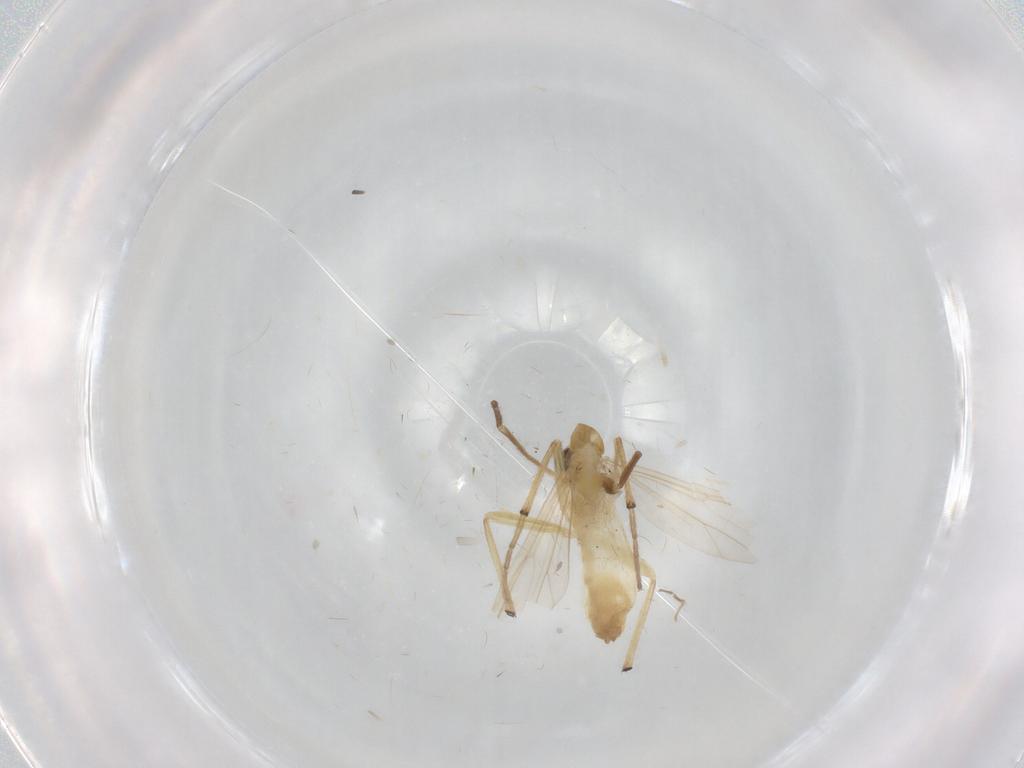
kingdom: Animalia
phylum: Arthropoda
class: Insecta
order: Diptera
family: Chironomidae
